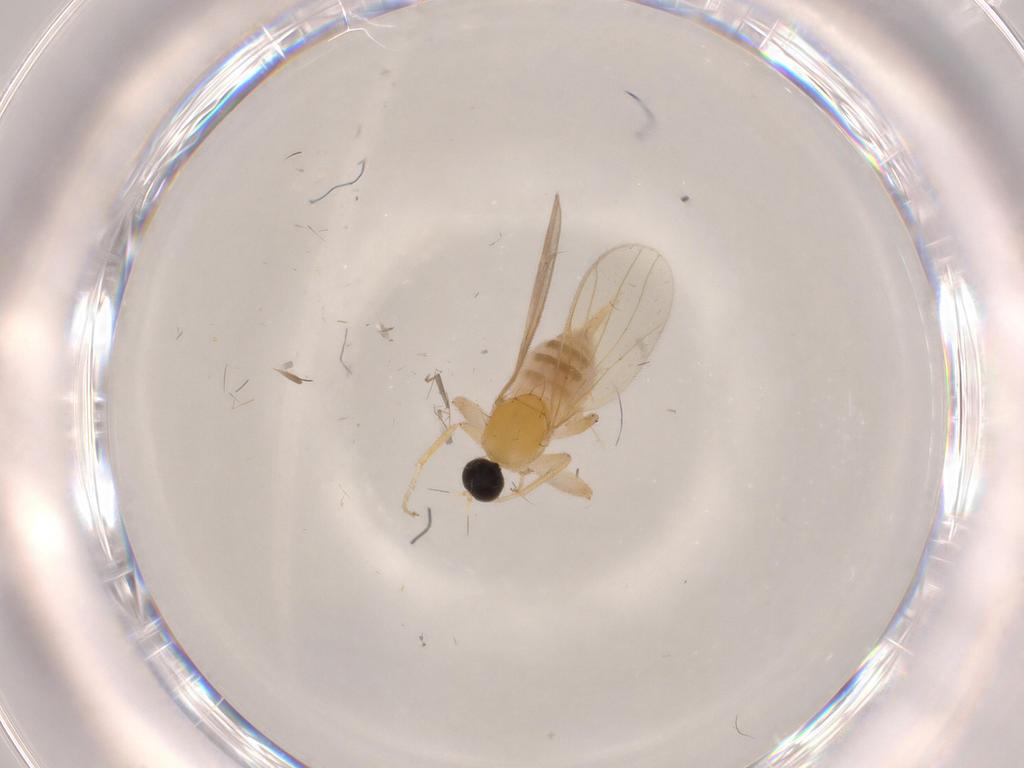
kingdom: Animalia
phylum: Arthropoda
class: Insecta
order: Diptera
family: Chironomidae
